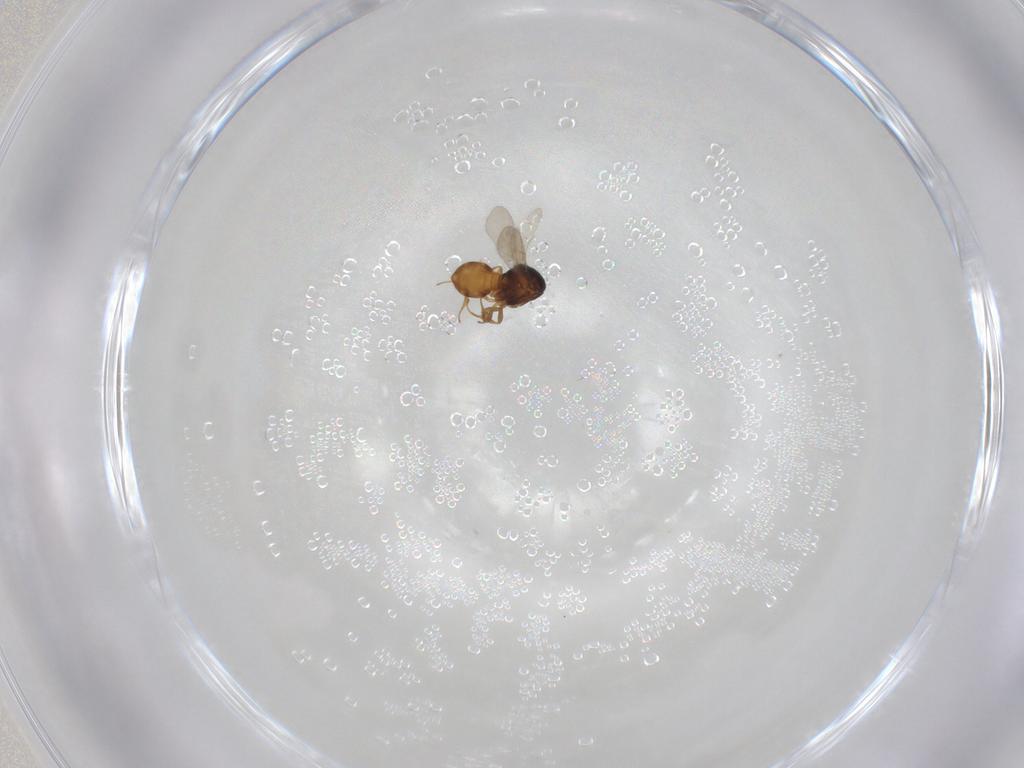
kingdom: Animalia
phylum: Arthropoda
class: Insecta
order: Hymenoptera
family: Scelionidae
